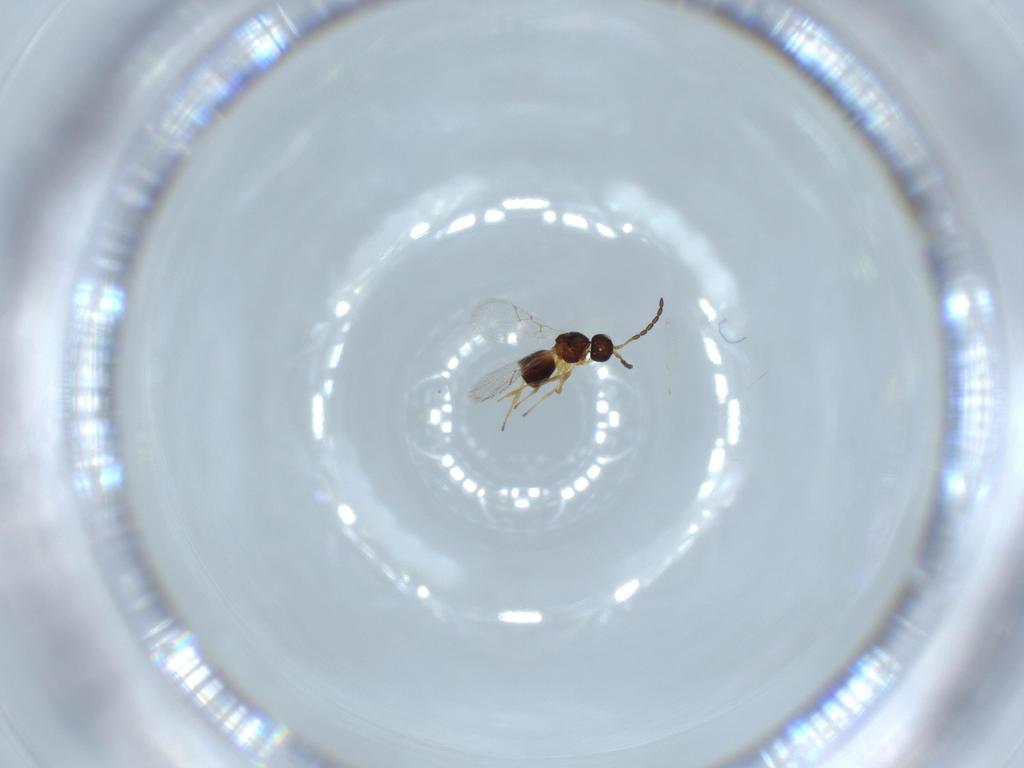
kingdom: Animalia
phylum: Arthropoda
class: Insecta
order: Hymenoptera
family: Figitidae
